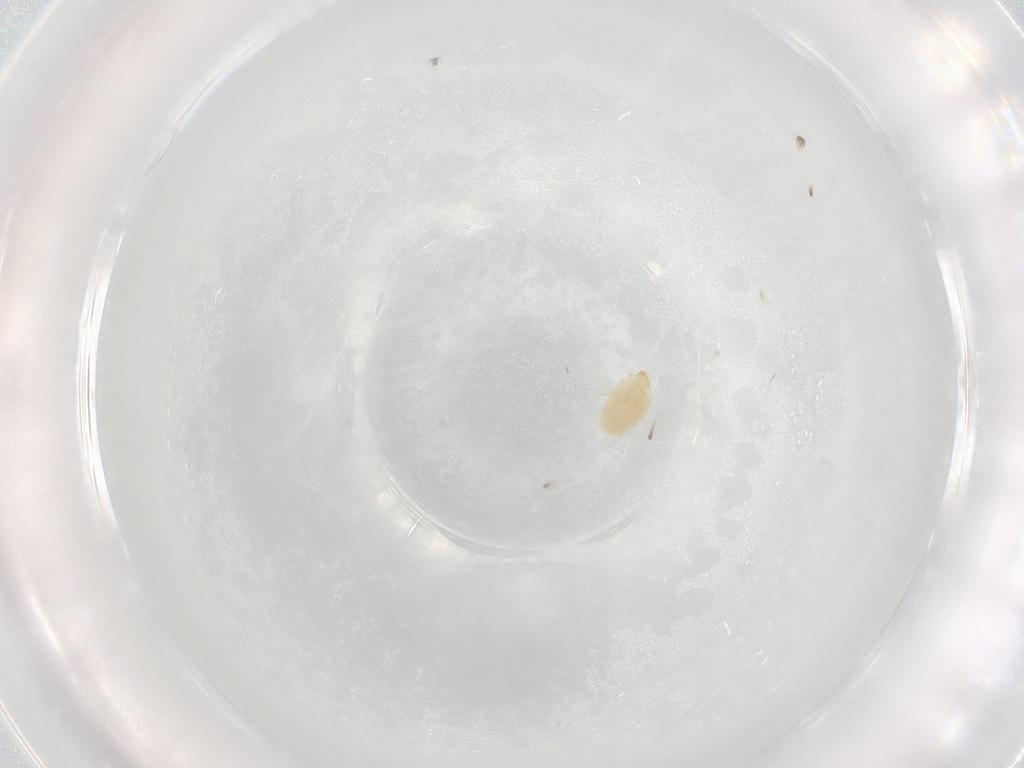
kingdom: Animalia
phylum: Arthropoda
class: Arachnida
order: Trombidiformes
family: Microtrombidiidae
